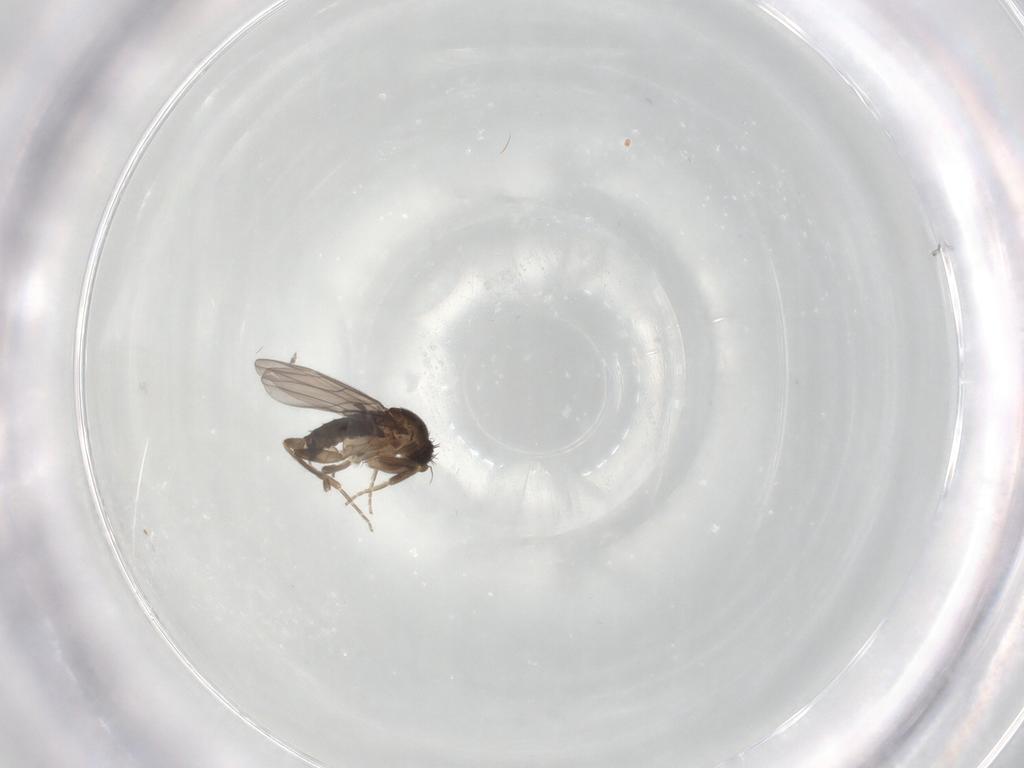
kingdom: Animalia
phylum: Arthropoda
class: Insecta
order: Diptera
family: Phoridae
